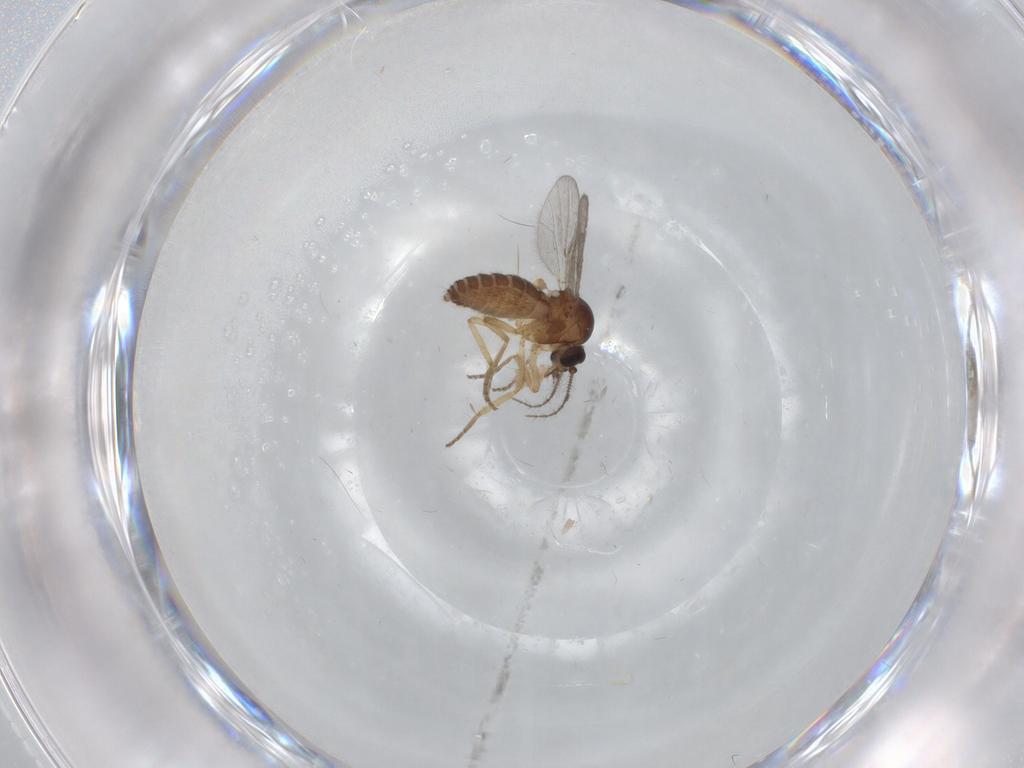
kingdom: Animalia
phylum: Arthropoda
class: Insecta
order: Diptera
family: Ceratopogonidae
